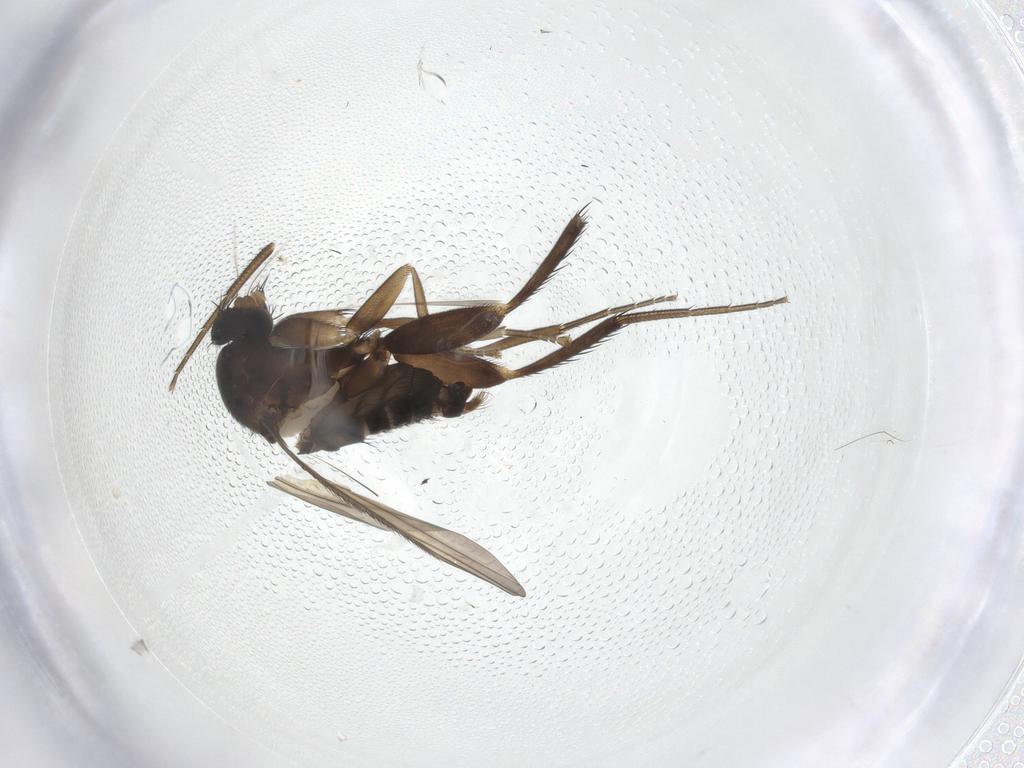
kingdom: Animalia
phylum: Arthropoda
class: Insecta
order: Diptera
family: Phoridae
